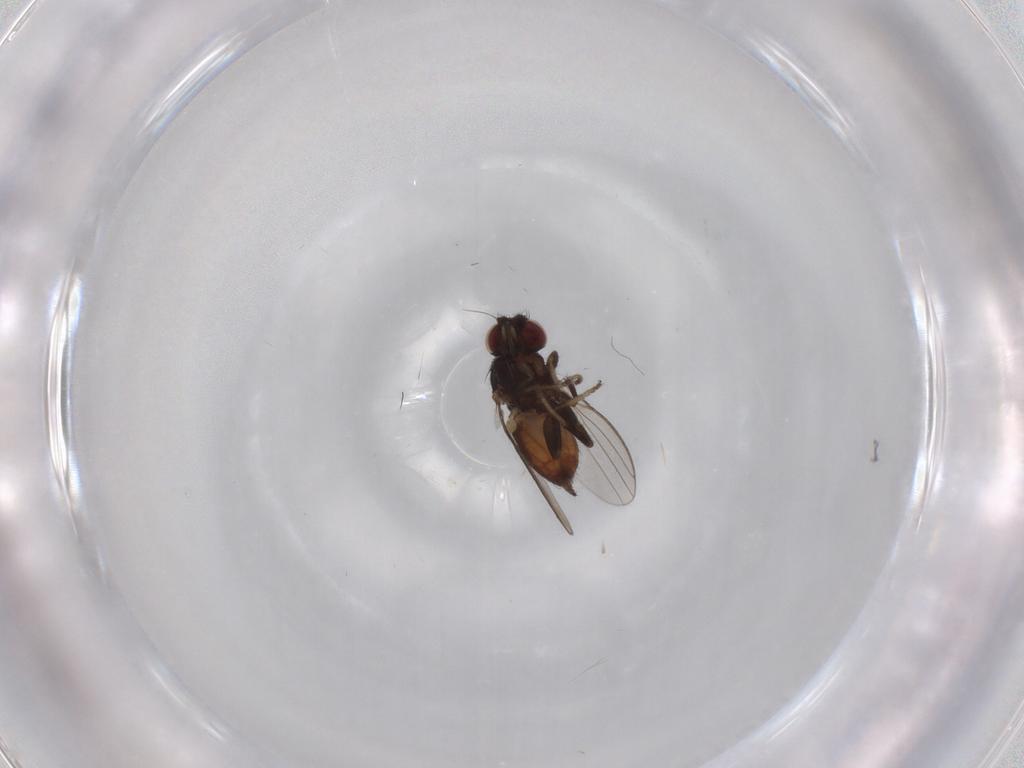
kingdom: Animalia
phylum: Arthropoda
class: Insecta
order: Diptera
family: Milichiidae
